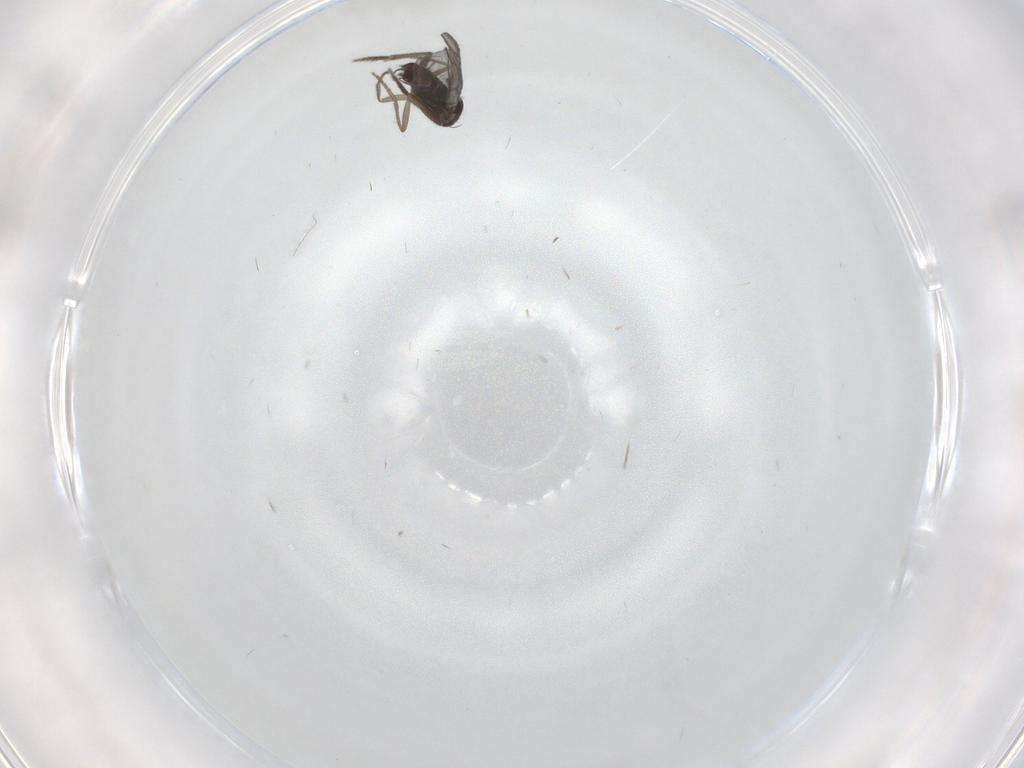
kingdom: Animalia
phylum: Arthropoda
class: Insecta
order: Diptera
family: Phoridae
